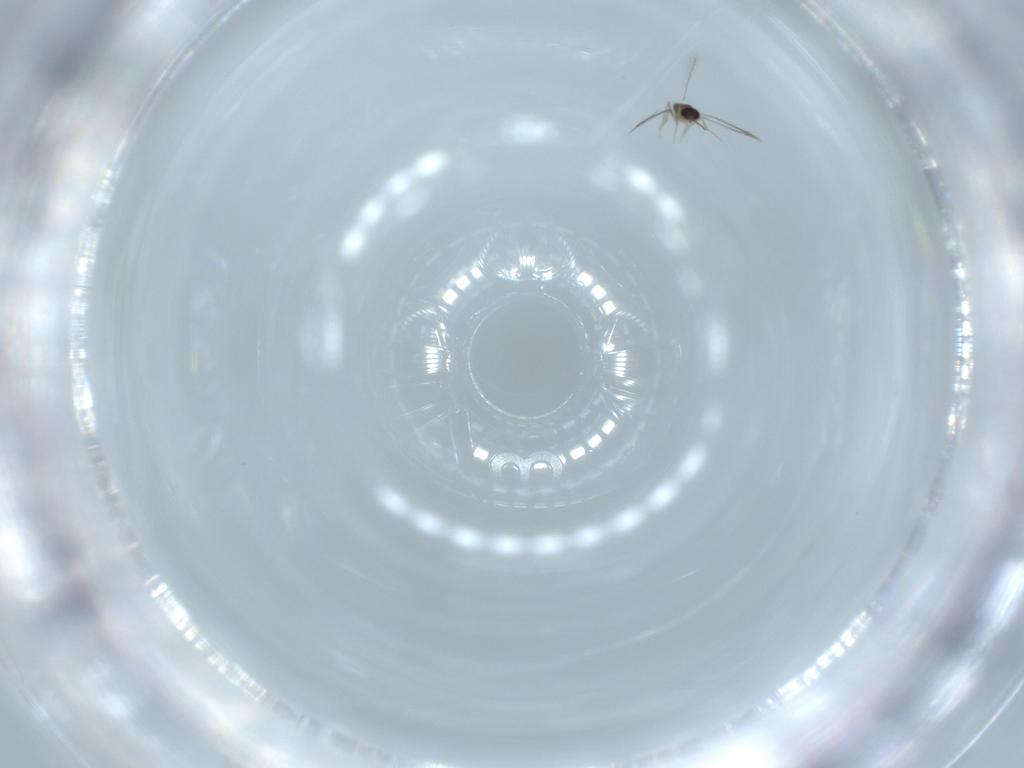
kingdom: Animalia
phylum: Arthropoda
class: Insecta
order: Hymenoptera
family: Mymaridae
